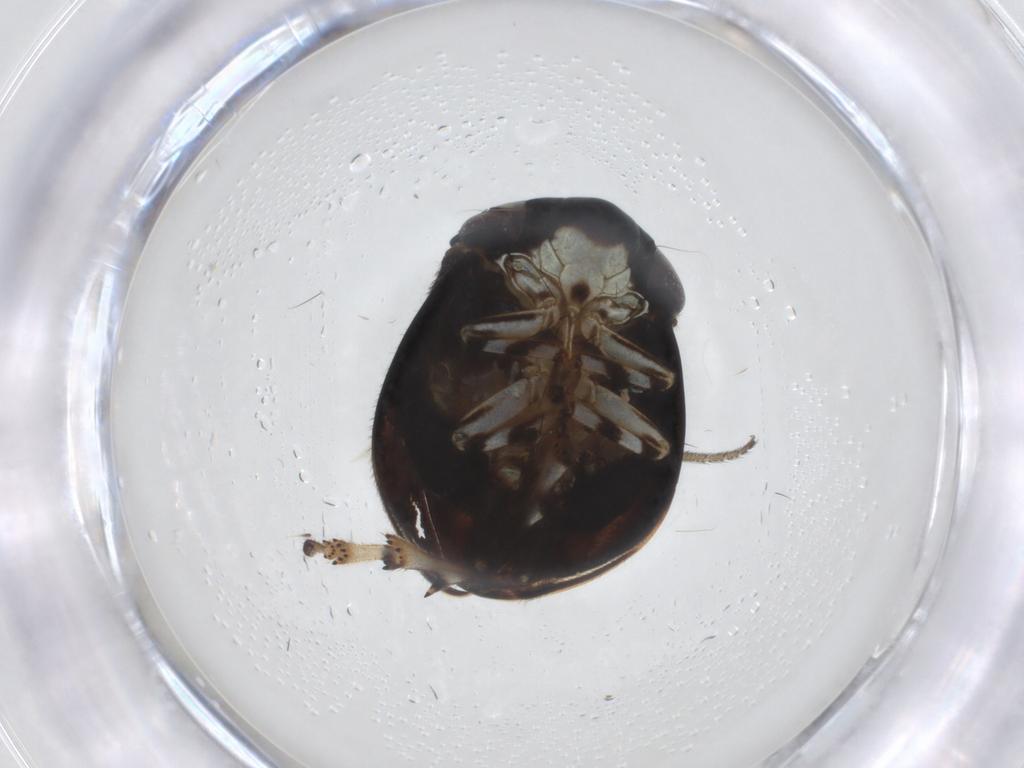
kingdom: Animalia
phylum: Arthropoda
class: Insecta
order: Hemiptera
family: Clastopteridae
